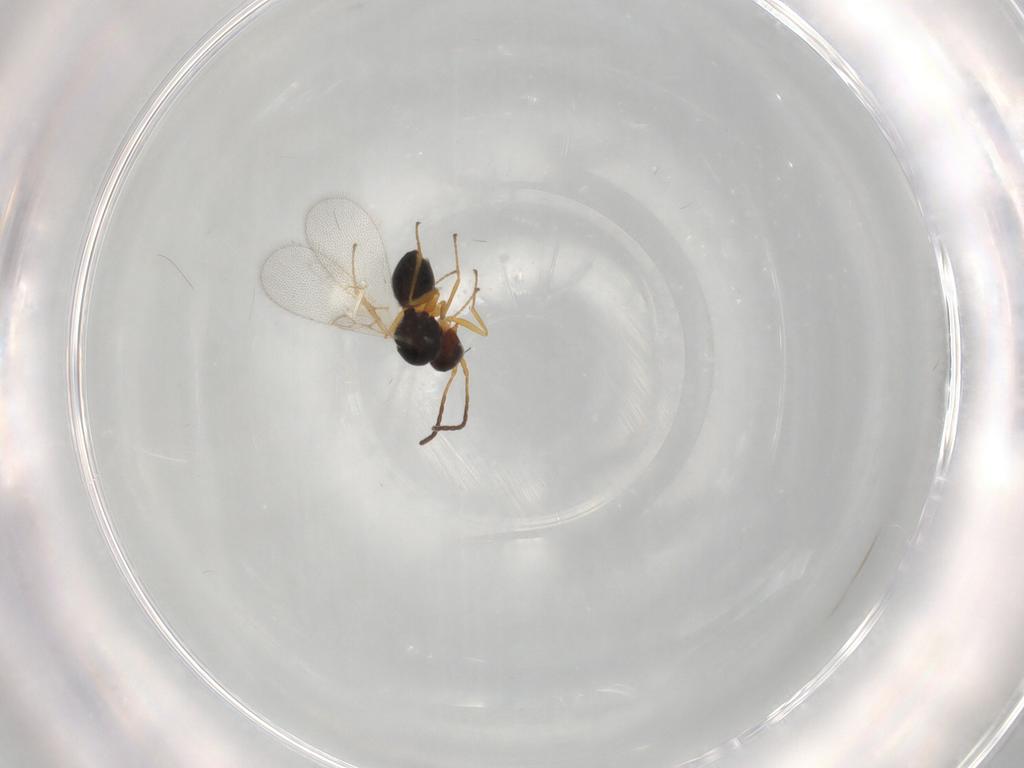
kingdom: Animalia
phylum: Arthropoda
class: Insecta
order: Hymenoptera
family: Figitidae
